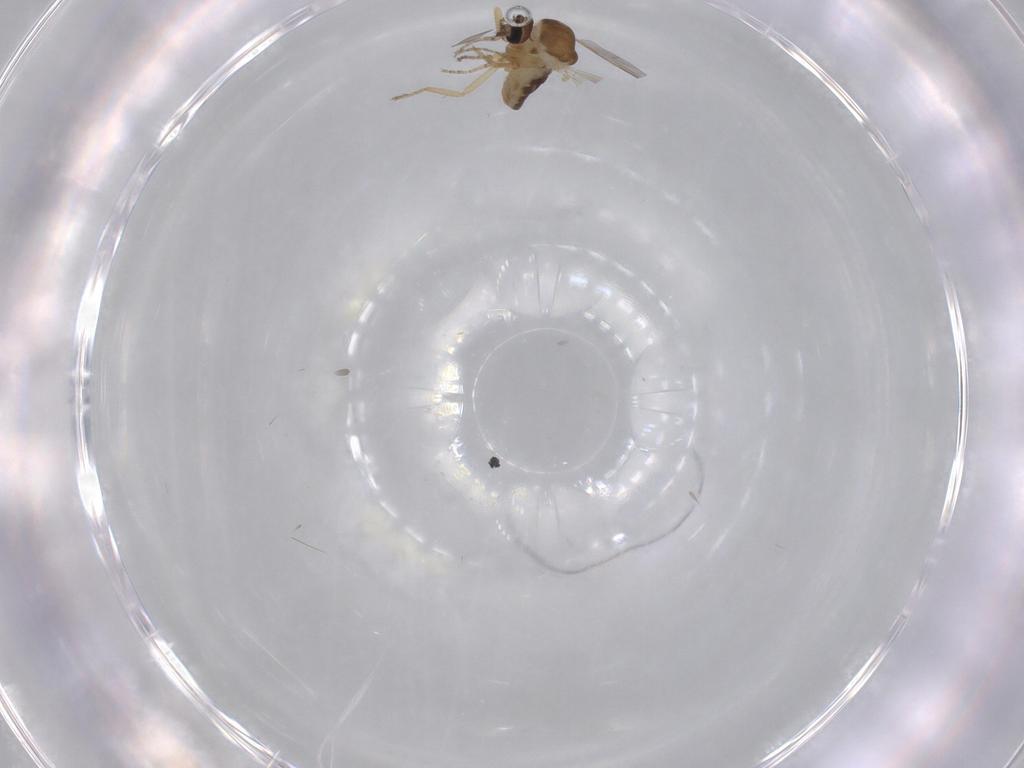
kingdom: Animalia
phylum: Arthropoda
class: Insecta
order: Diptera
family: Ceratopogonidae
